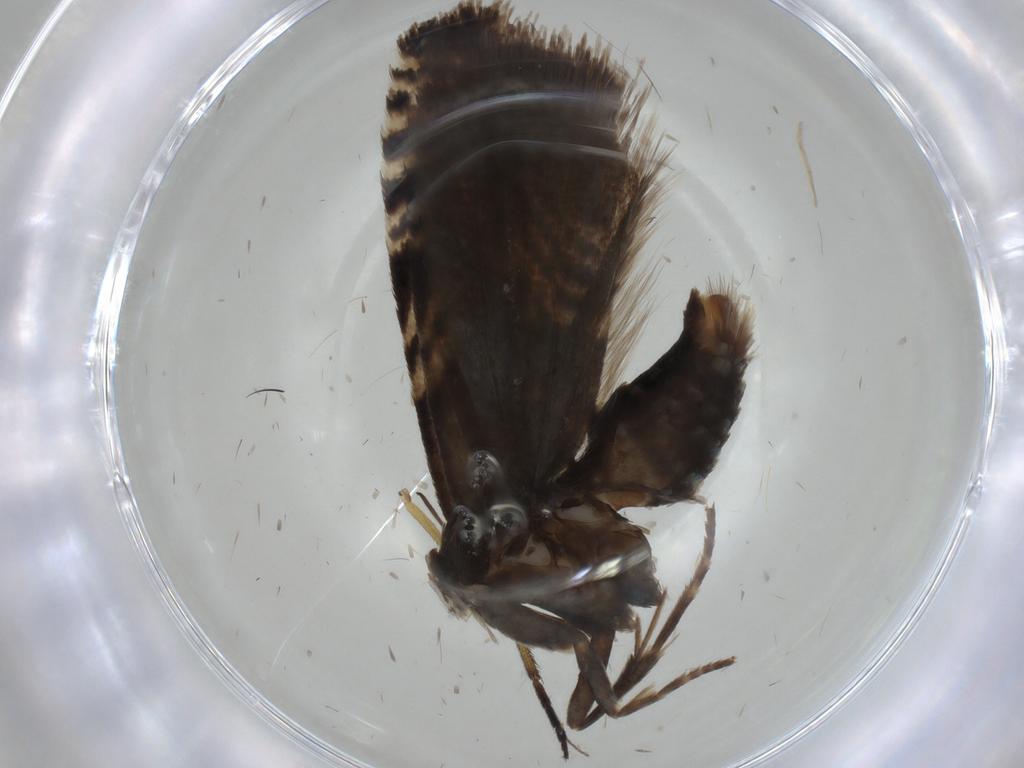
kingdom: Animalia
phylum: Arthropoda
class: Insecta
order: Lepidoptera
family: Tortricidae
